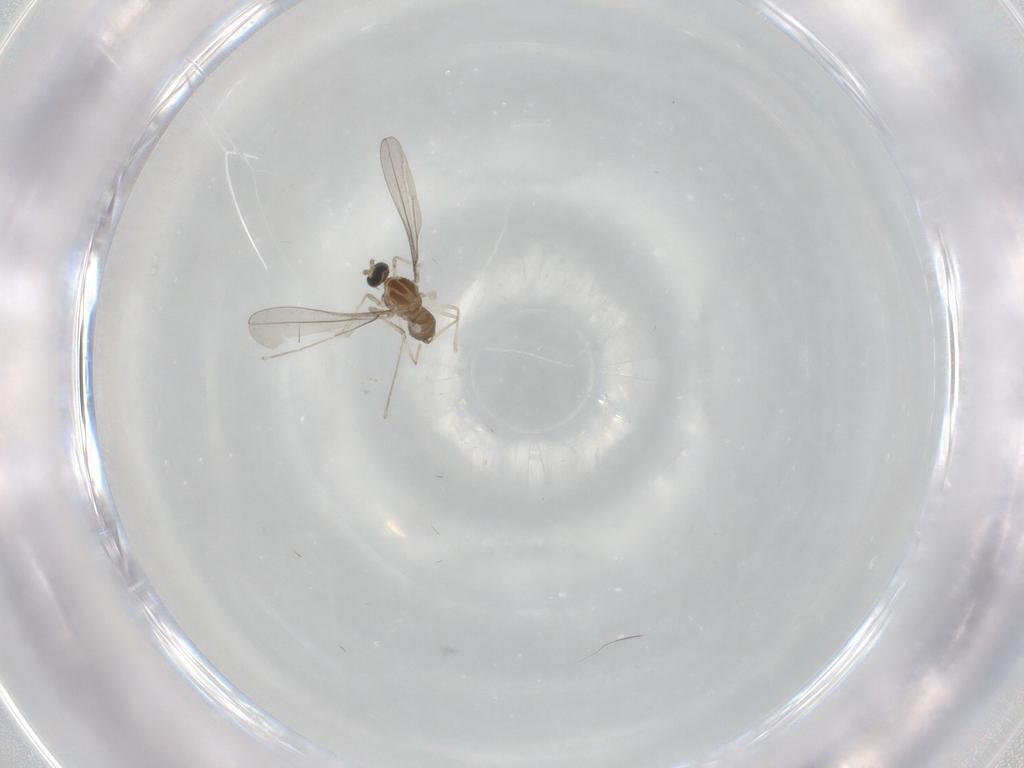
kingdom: Animalia
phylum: Arthropoda
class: Insecta
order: Diptera
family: Cecidomyiidae
